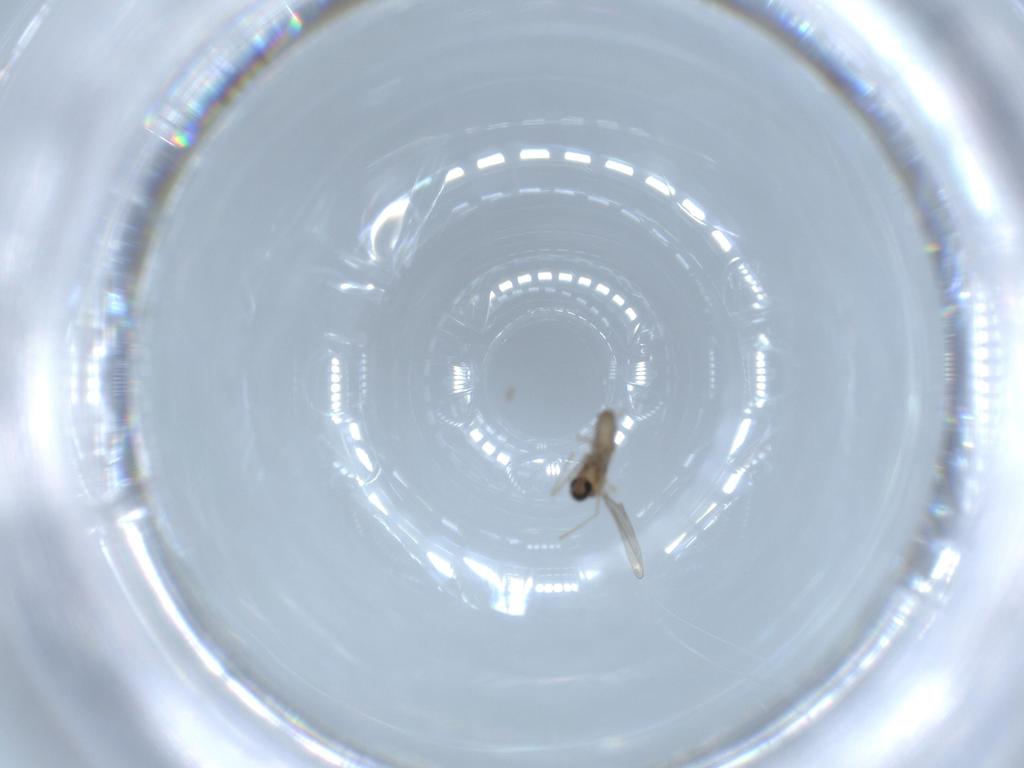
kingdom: Animalia
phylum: Arthropoda
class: Insecta
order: Diptera
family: Cecidomyiidae
